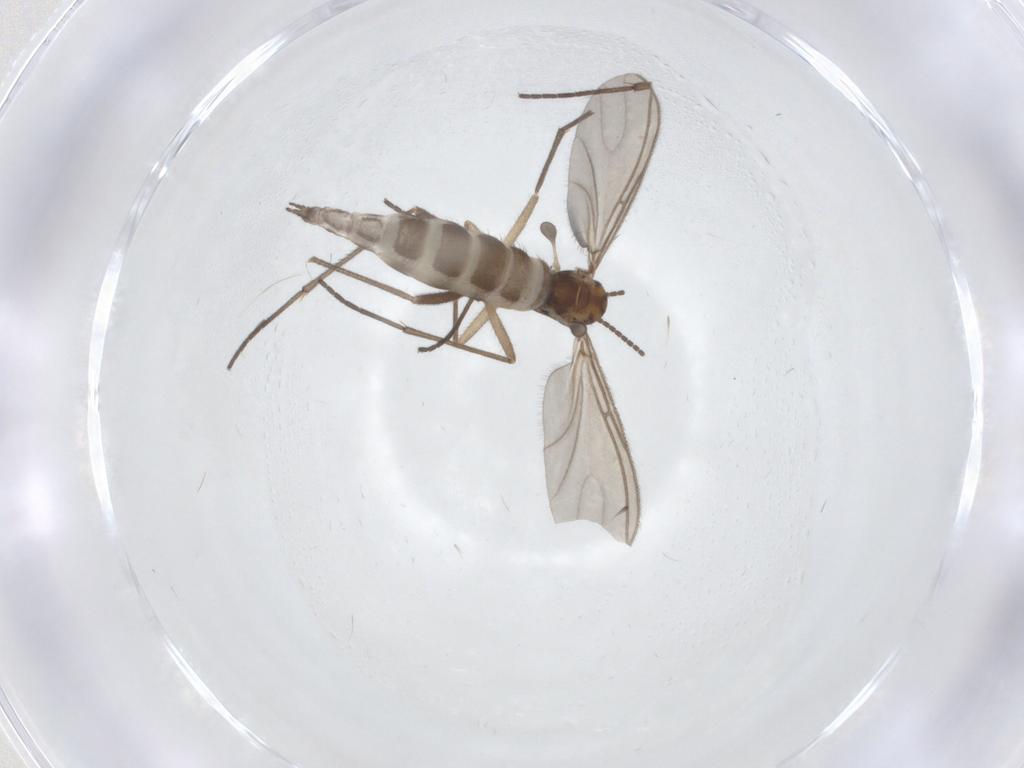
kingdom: Animalia
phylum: Arthropoda
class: Insecta
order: Diptera
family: Sciaridae
